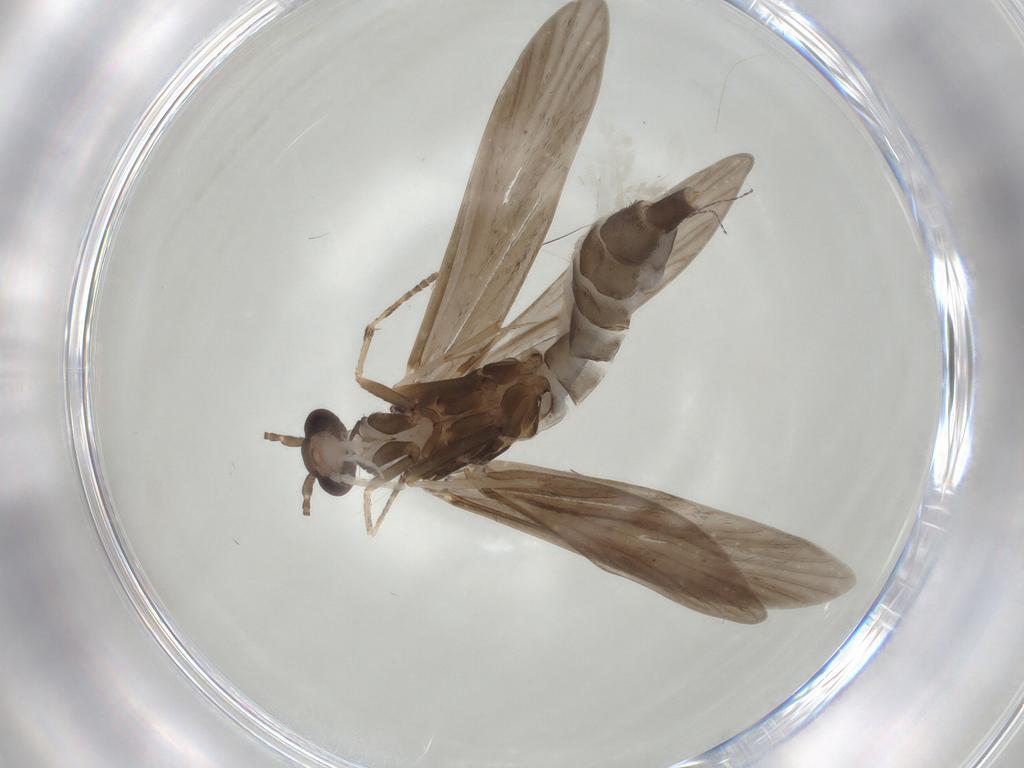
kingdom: Animalia
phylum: Arthropoda
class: Insecta
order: Trichoptera
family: Xiphocentronidae
